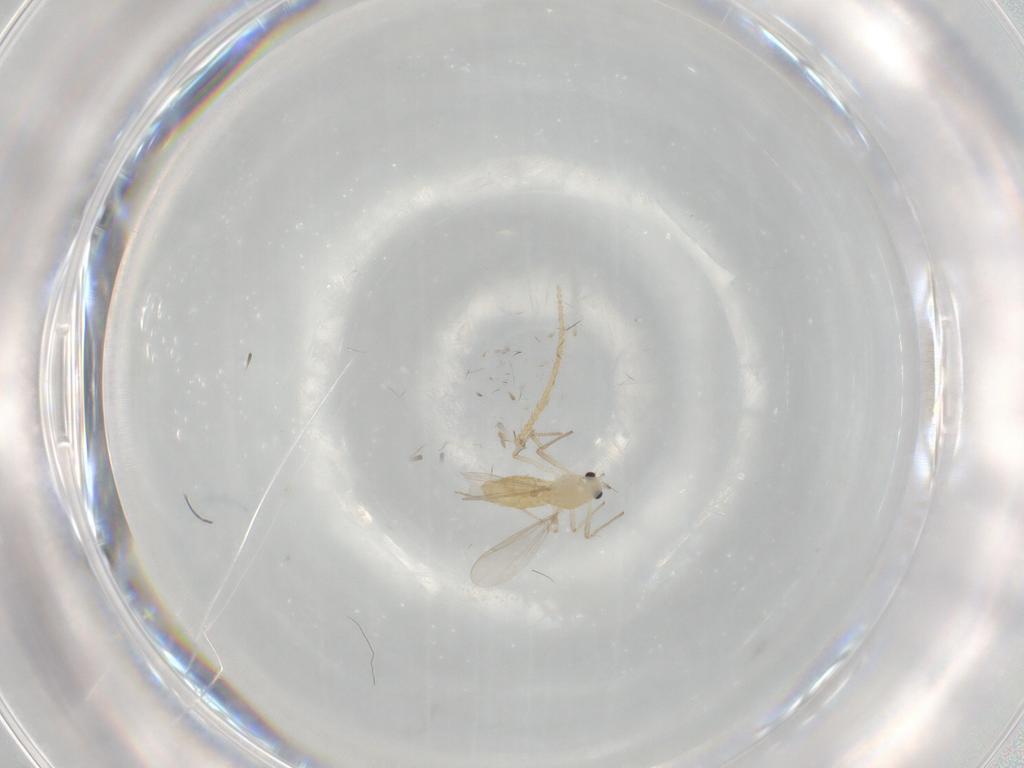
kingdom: Animalia
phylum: Arthropoda
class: Insecta
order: Diptera
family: Chironomidae
